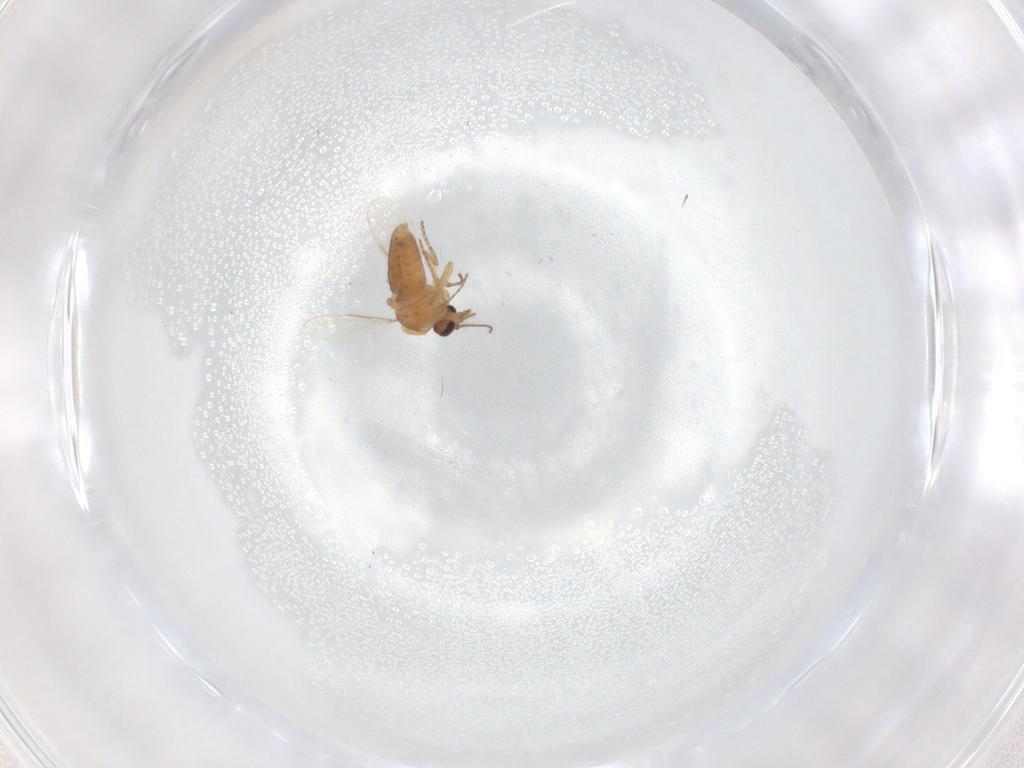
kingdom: Animalia
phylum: Arthropoda
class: Insecta
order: Diptera
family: Ceratopogonidae
